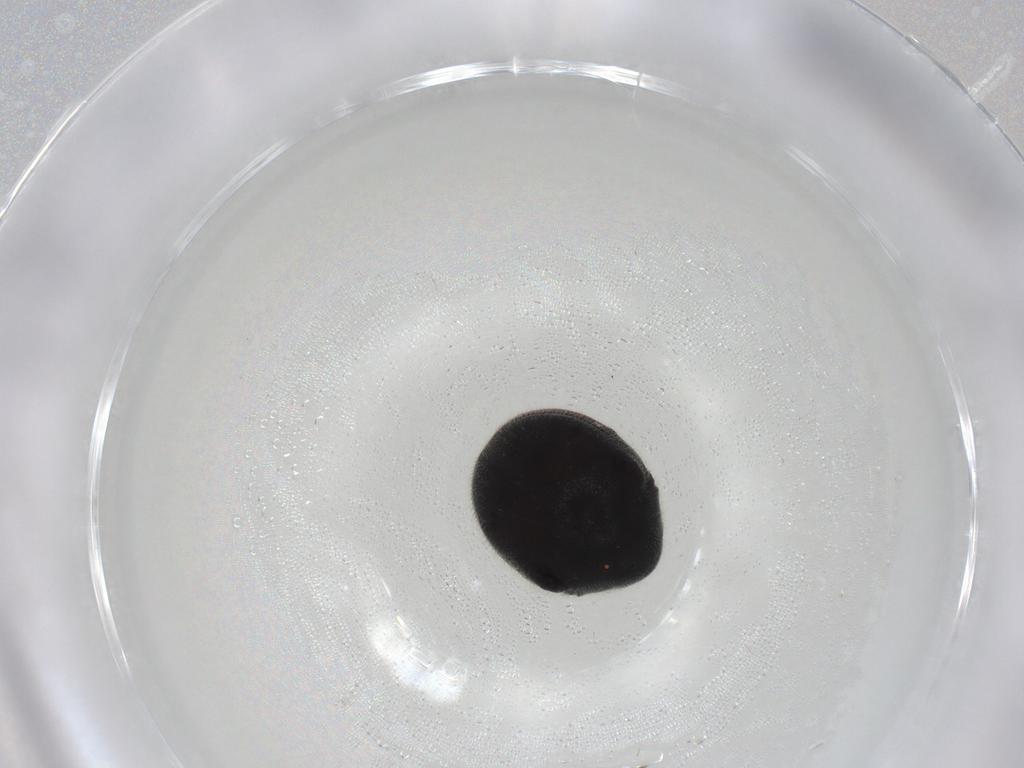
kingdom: Animalia
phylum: Arthropoda
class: Insecta
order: Coleoptera
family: Ptinidae
